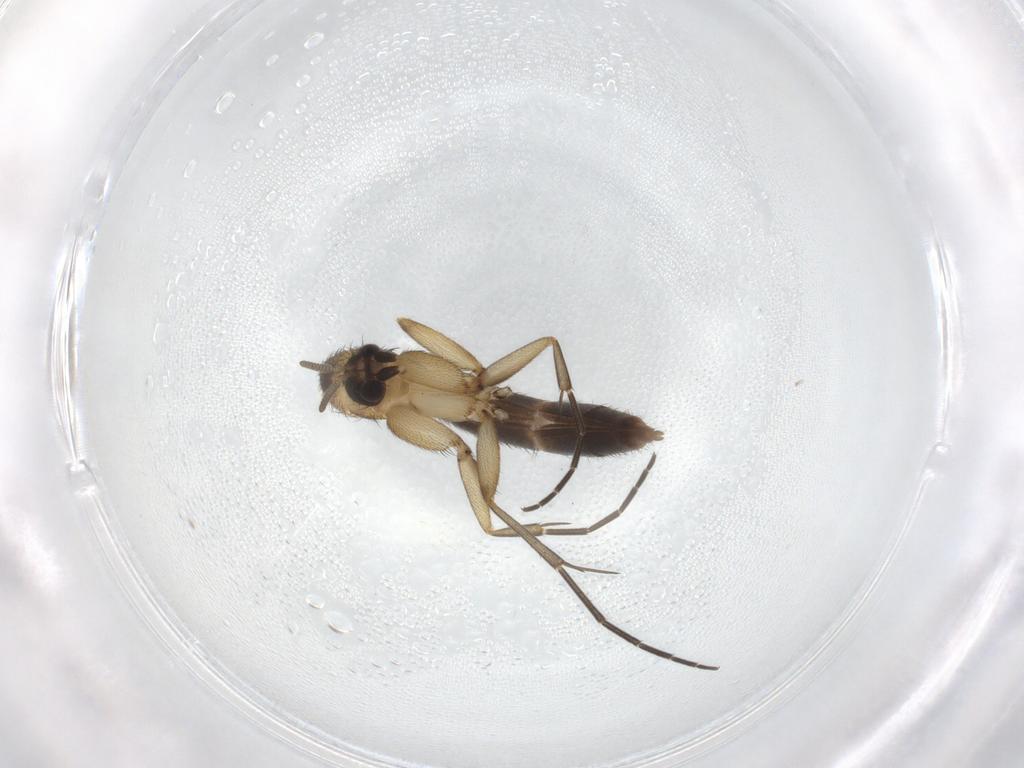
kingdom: Animalia
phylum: Arthropoda
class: Insecta
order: Diptera
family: Mycetophilidae
